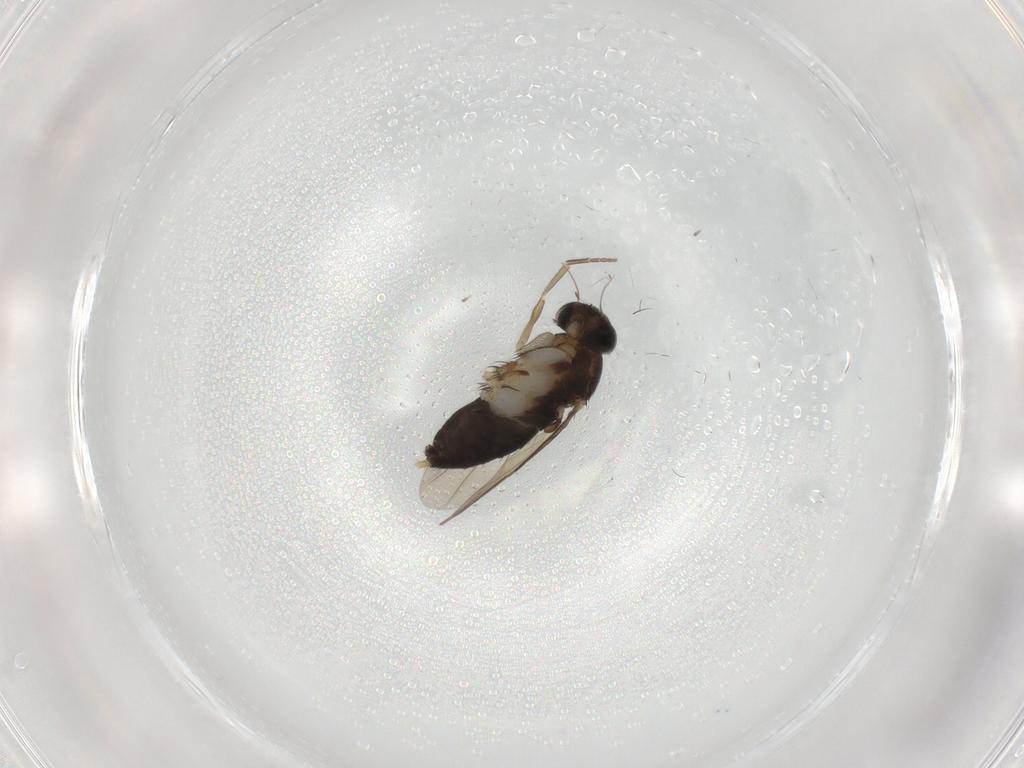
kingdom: Animalia
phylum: Arthropoda
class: Insecta
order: Diptera
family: Phoridae
